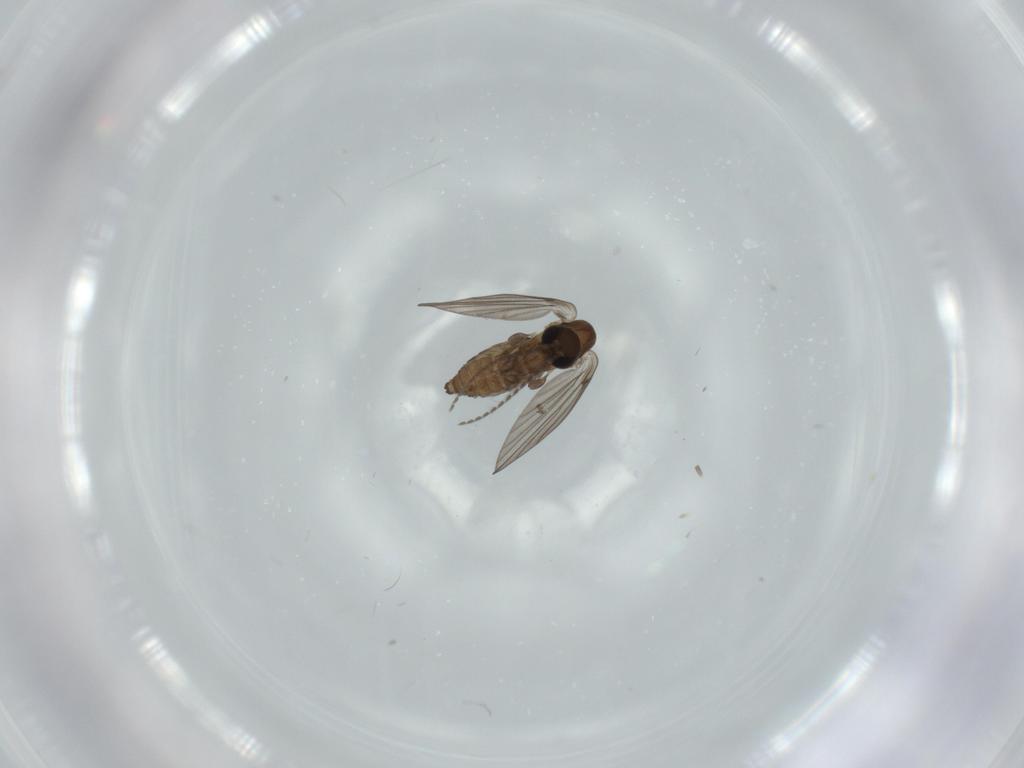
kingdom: Animalia
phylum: Arthropoda
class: Insecta
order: Diptera
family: Psychodidae
